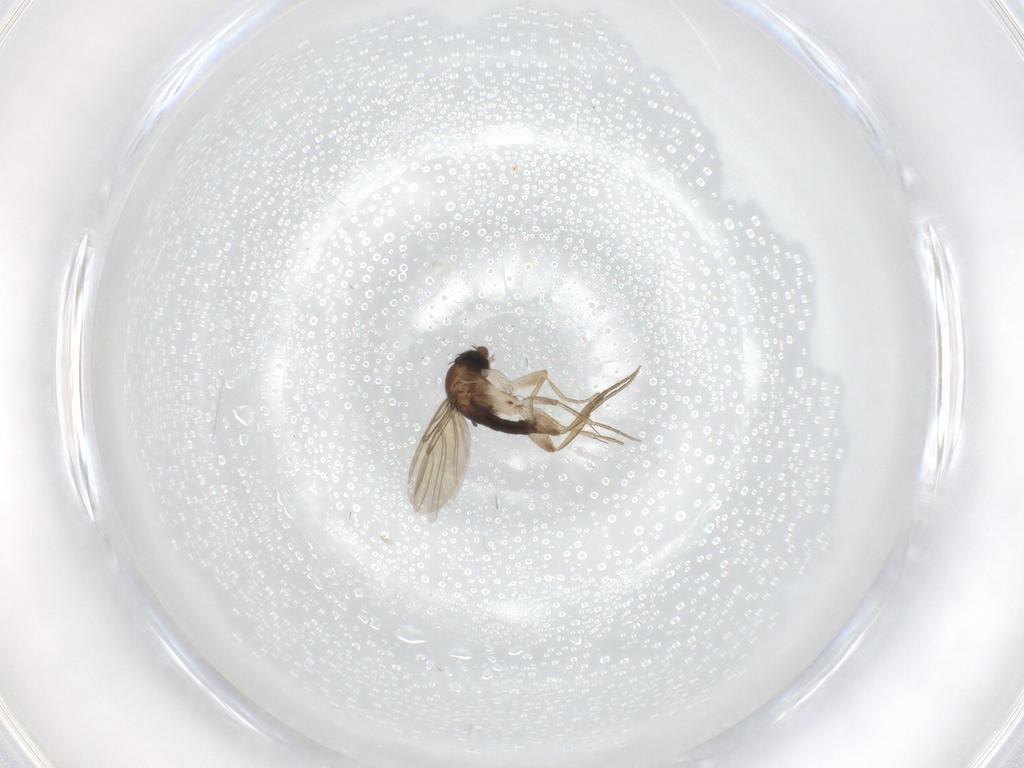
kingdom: Animalia
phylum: Arthropoda
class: Insecta
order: Diptera
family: Phoridae
